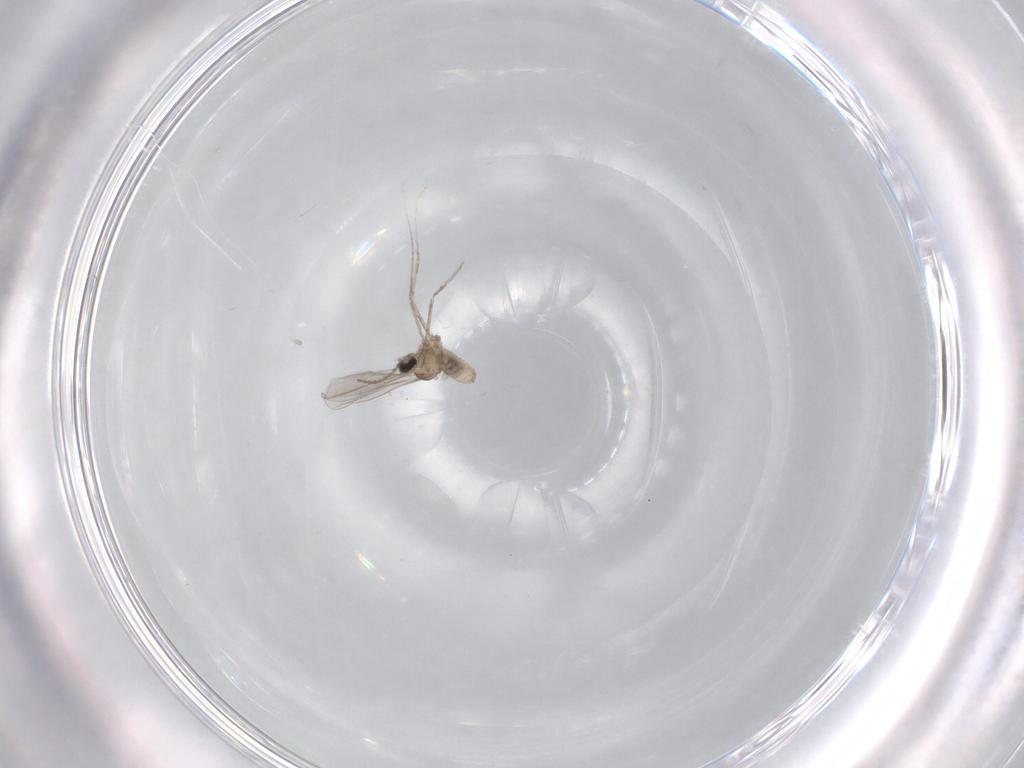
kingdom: Animalia
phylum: Arthropoda
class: Insecta
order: Diptera
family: Cecidomyiidae
